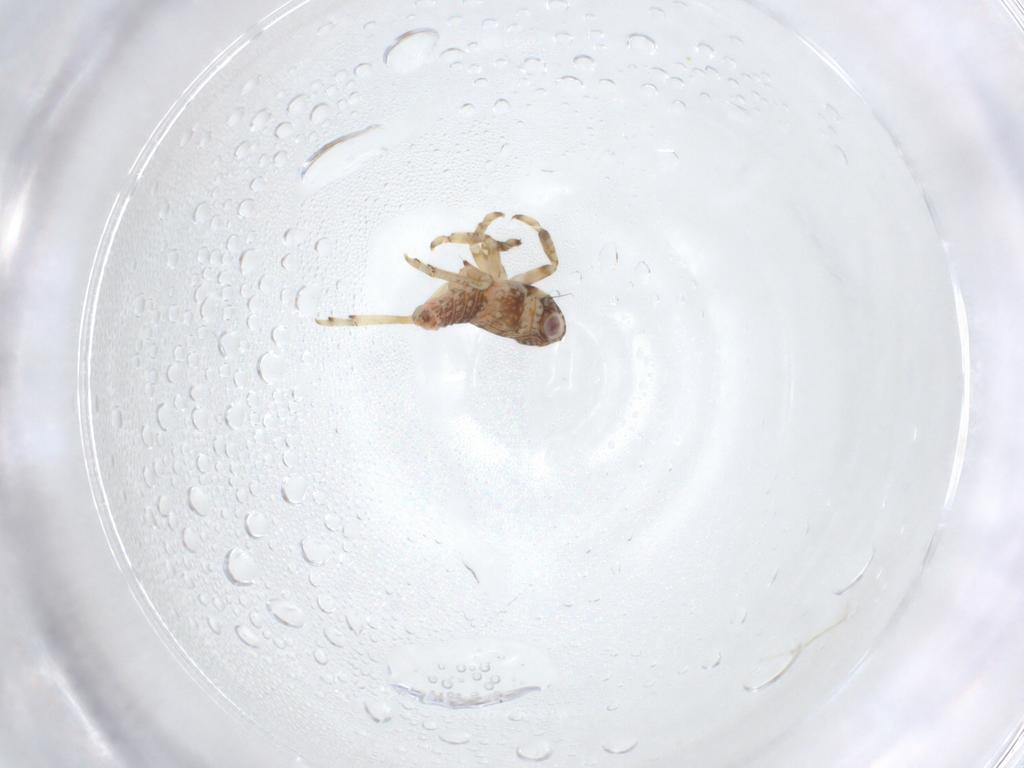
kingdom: Animalia
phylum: Arthropoda
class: Insecta
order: Hemiptera
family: Issidae
